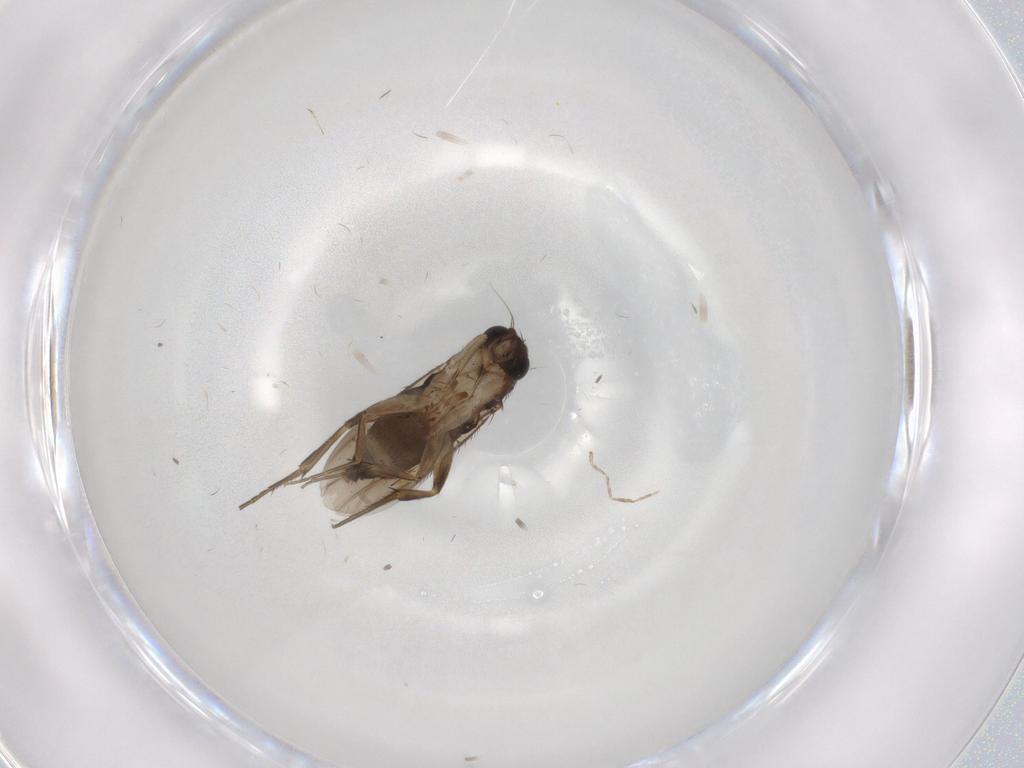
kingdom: Animalia
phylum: Arthropoda
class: Insecta
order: Diptera
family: Phoridae
